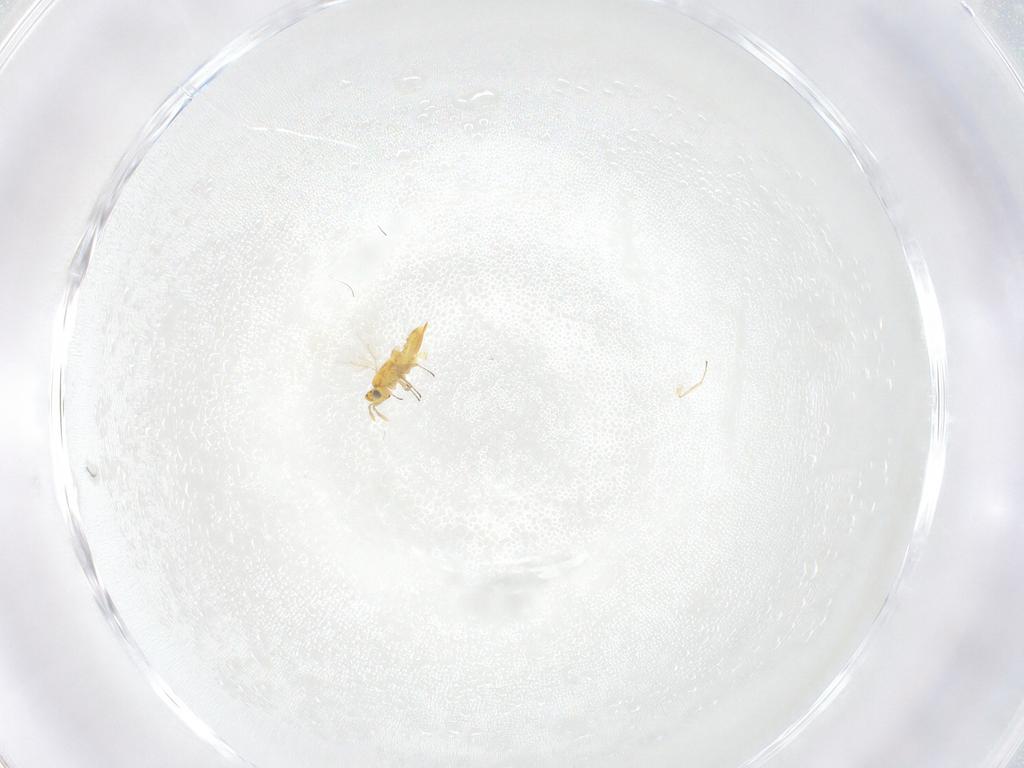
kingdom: Animalia
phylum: Arthropoda
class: Insecta
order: Hymenoptera
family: Aphelinidae
